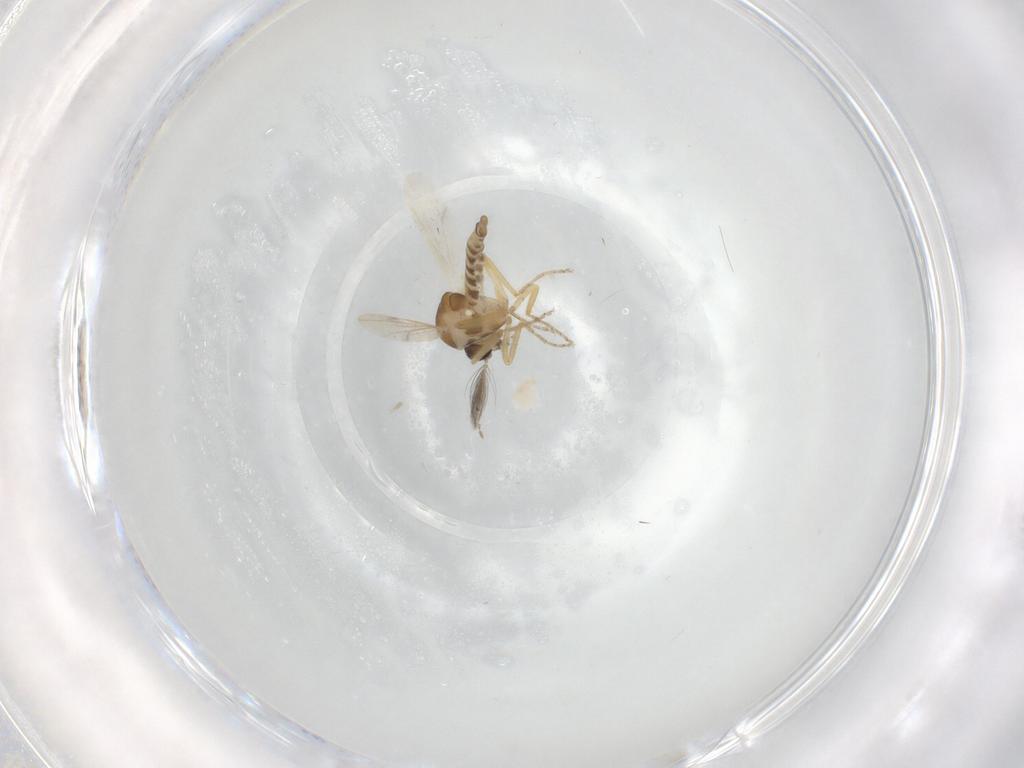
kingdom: Animalia
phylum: Arthropoda
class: Insecta
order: Diptera
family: Ceratopogonidae
